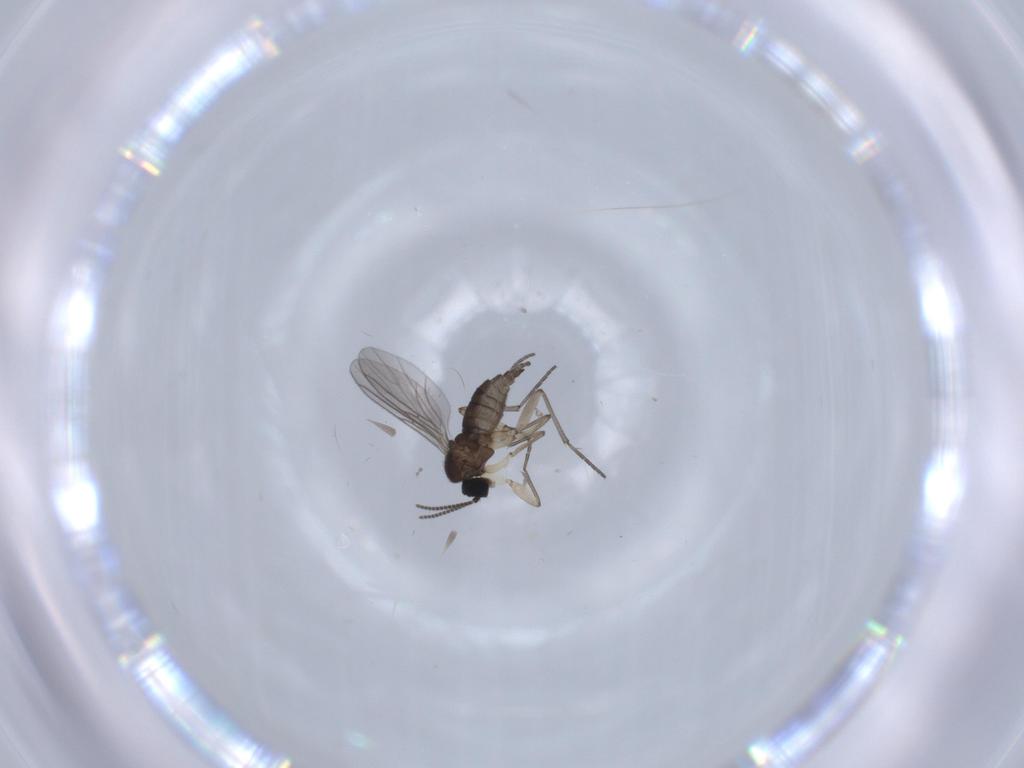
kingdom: Animalia
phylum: Arthropoda
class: Insecta
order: Diptera
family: Sciaridae
